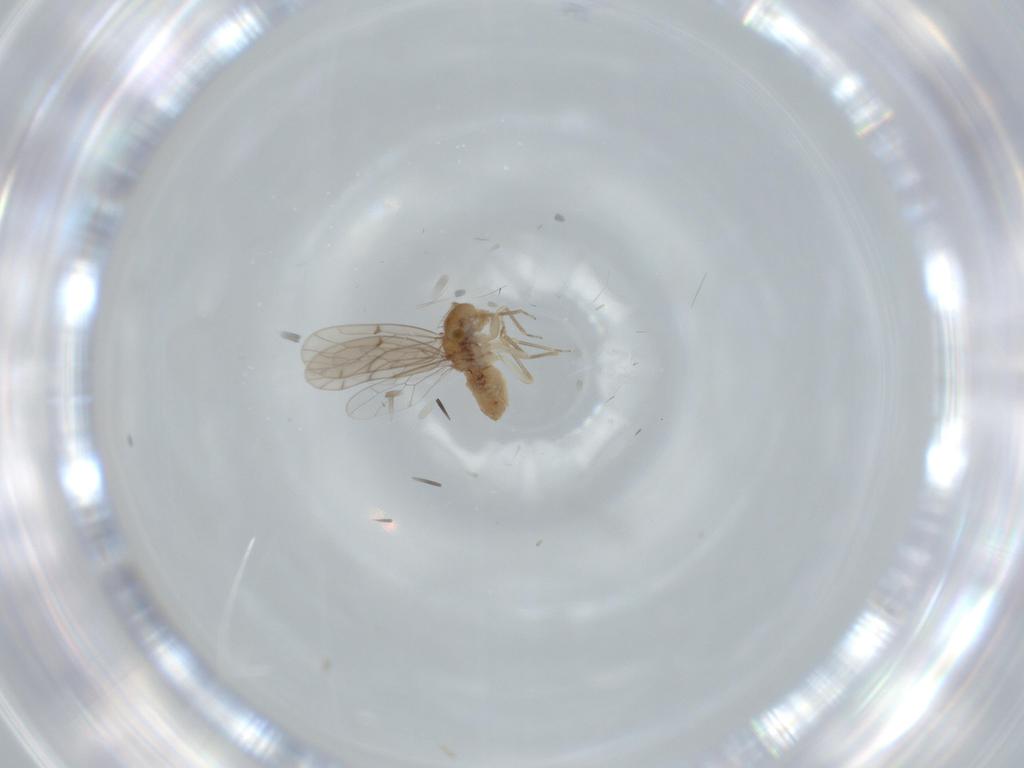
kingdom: Animalia
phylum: Arthropoda
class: Insecta
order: Psocodea
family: Ectopsocidae
